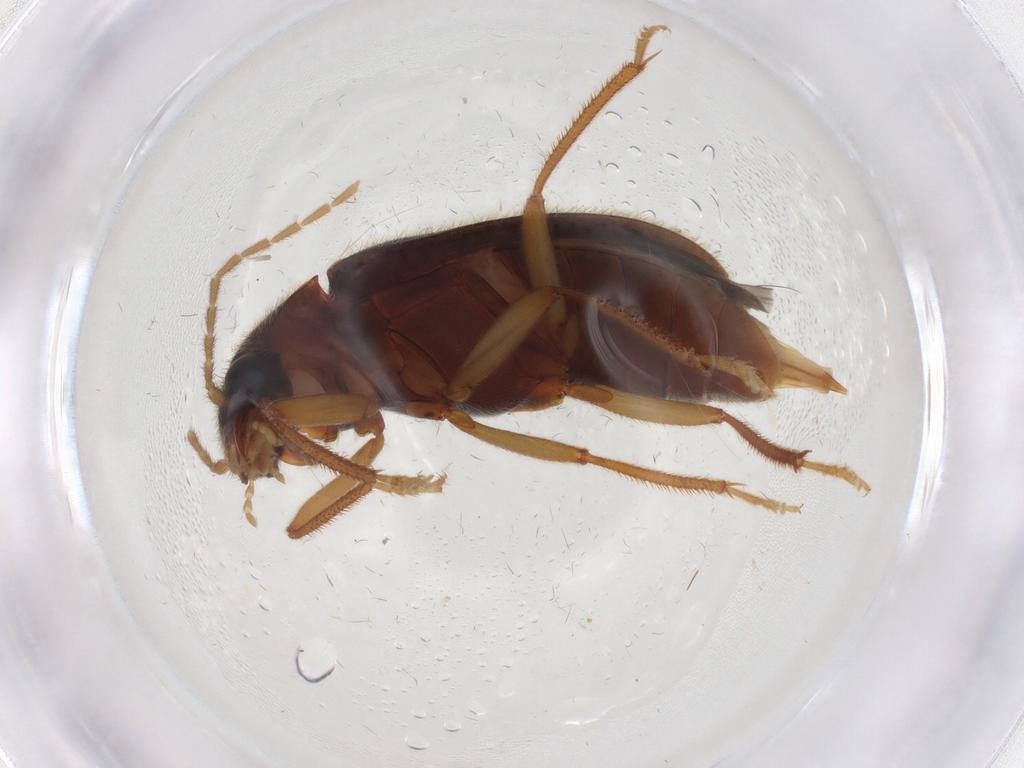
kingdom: Animalia
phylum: Arthropoda
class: Insecta
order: Coleoptera
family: Ptilodactylidae
